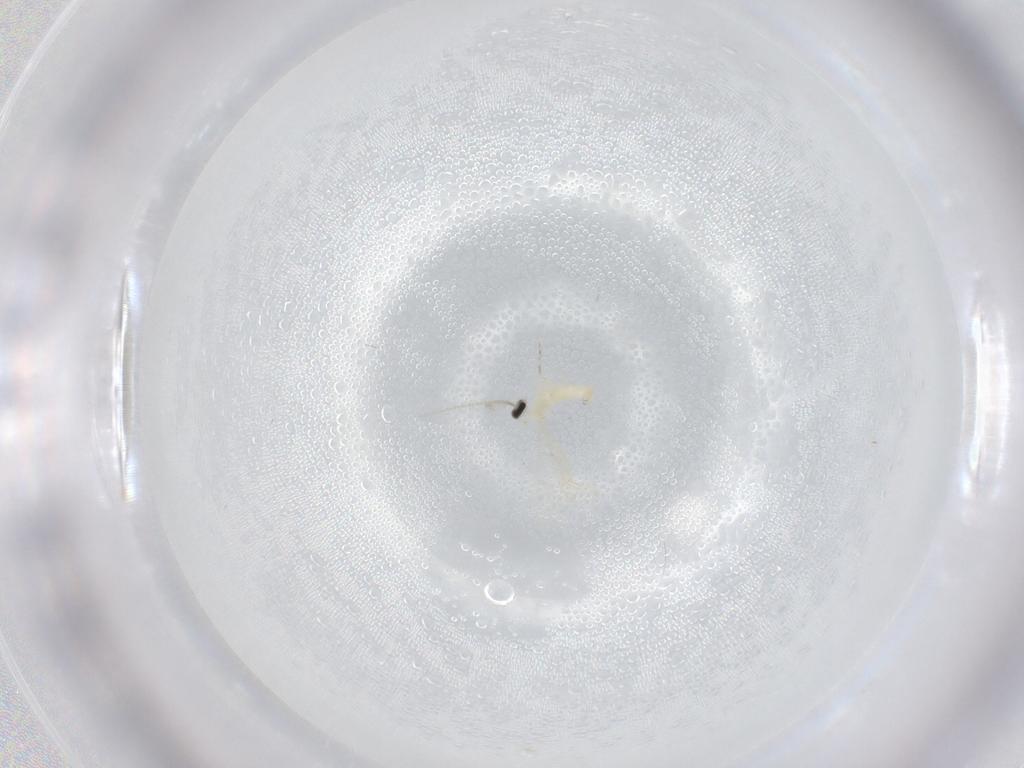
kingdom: Animalia
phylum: Arthropoda
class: Insecta
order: Diptera
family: Cecidomyiidae
